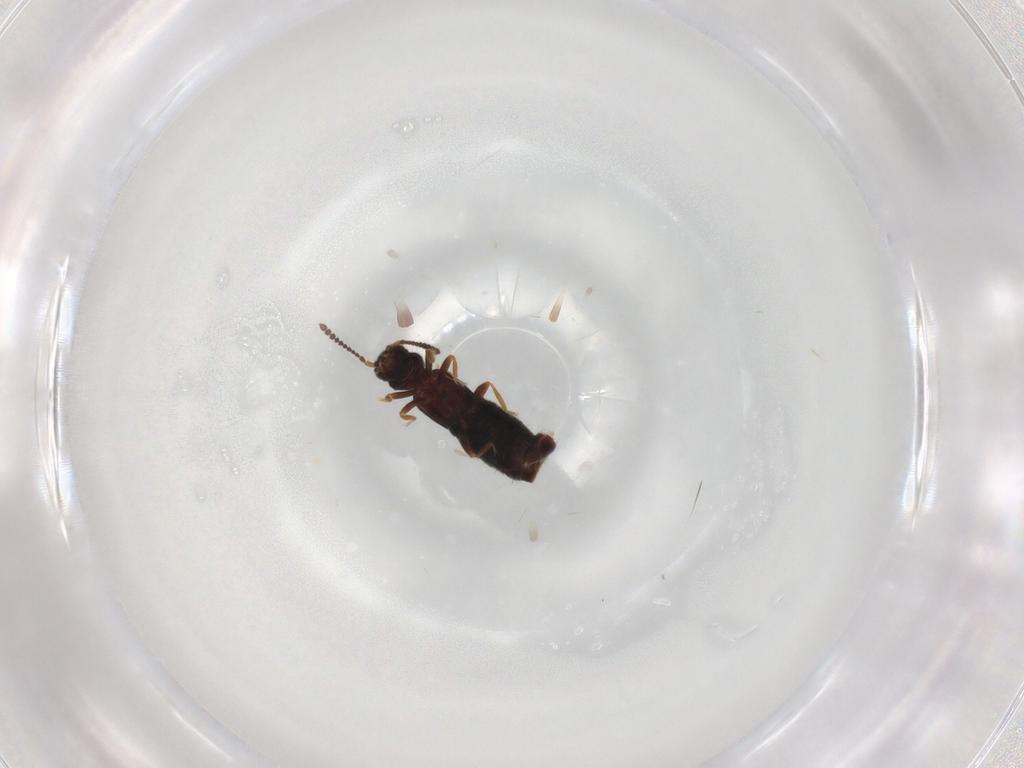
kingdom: Animalia
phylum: Arthropoda
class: Insecta
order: Coleoptera
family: Staphylinidae
